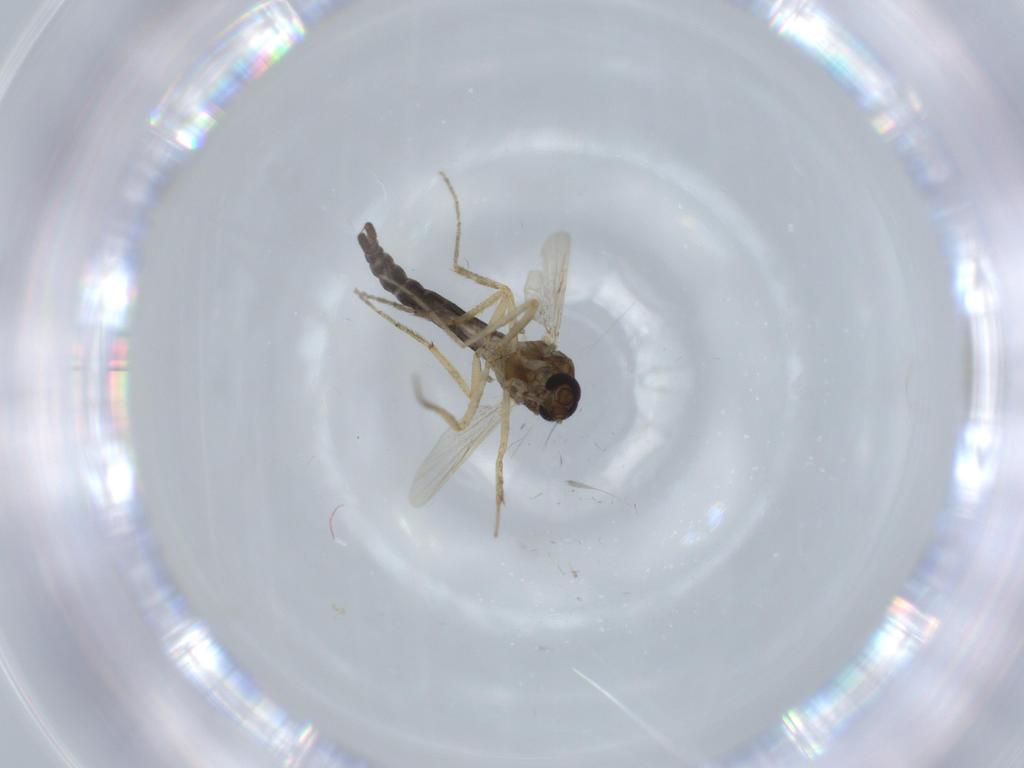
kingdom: Animalia
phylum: Arthropoda
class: Insecta
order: Diptera
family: Ceratopogonidae
